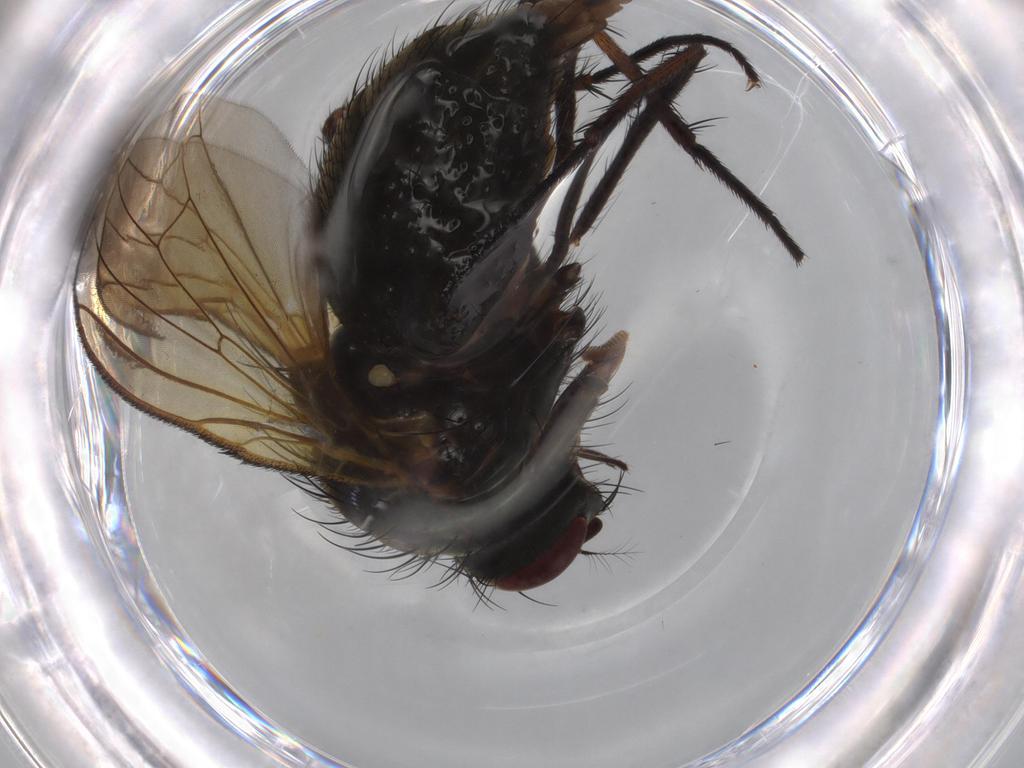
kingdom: Animalia
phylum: Arthropoda
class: Insecta
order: Diptera
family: Anthomyiidae
